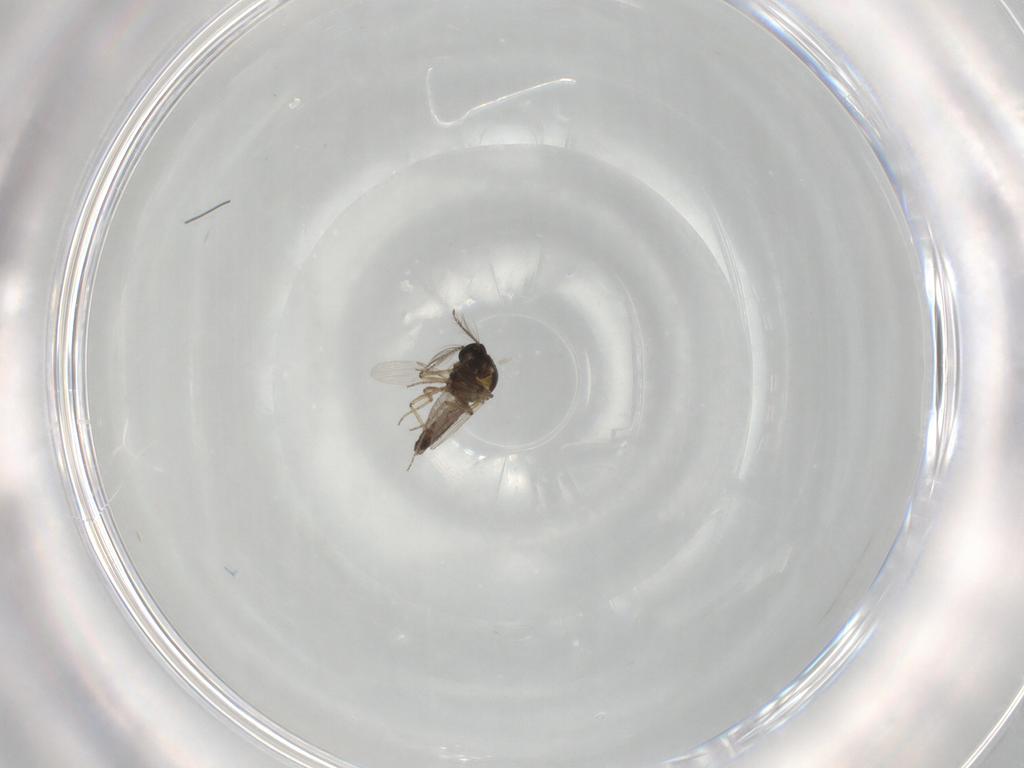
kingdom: Animalia
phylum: Arthropoda
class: Insecta
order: Diptera
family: Ceratopogonidae
